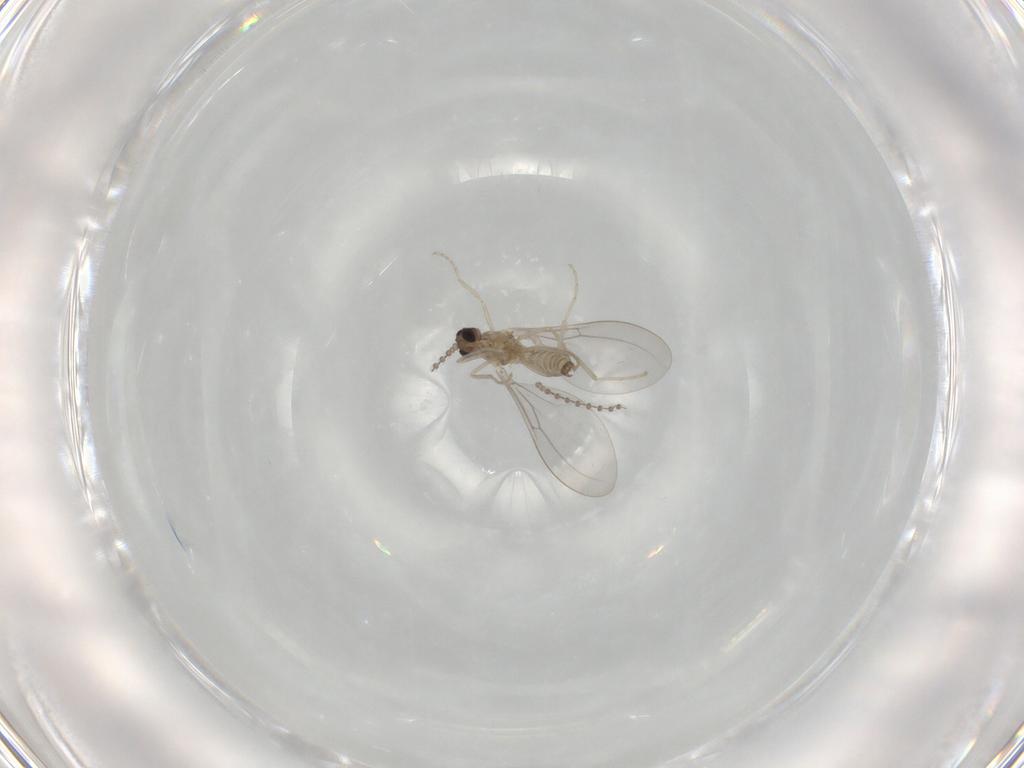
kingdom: Animalia
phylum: Arthropoda
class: Insecta
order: Diptera
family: Cecidomyiidae
